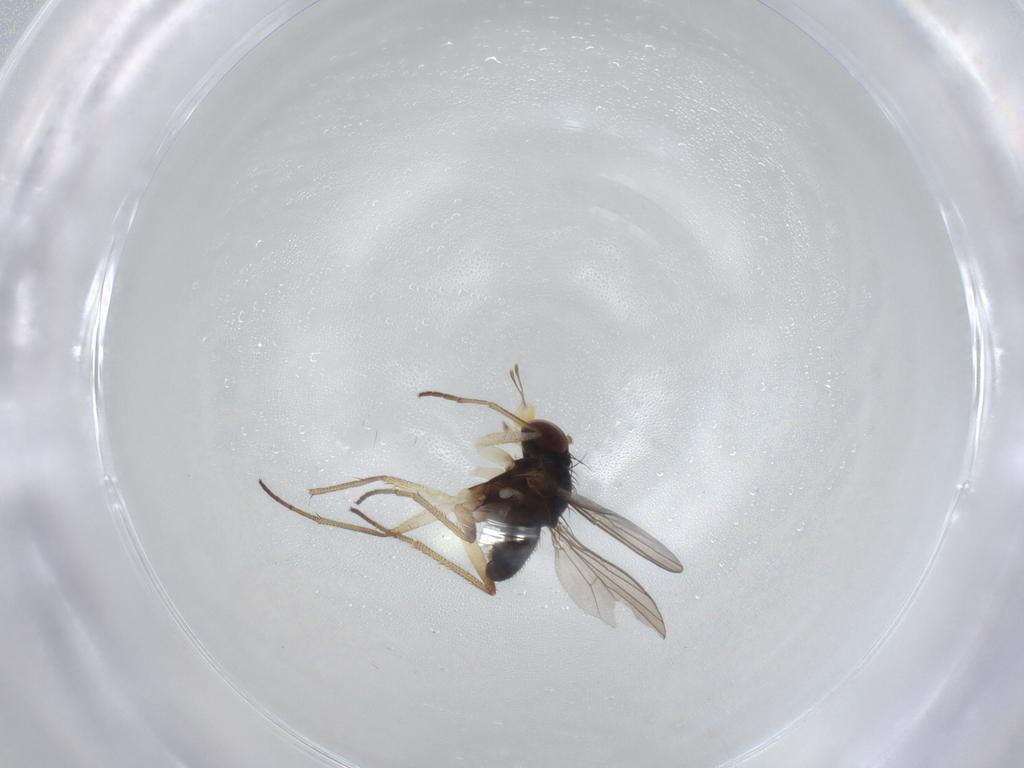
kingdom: Animalia
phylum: Arthropoda
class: Insecta
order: Diptera
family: Dolichopodidae
